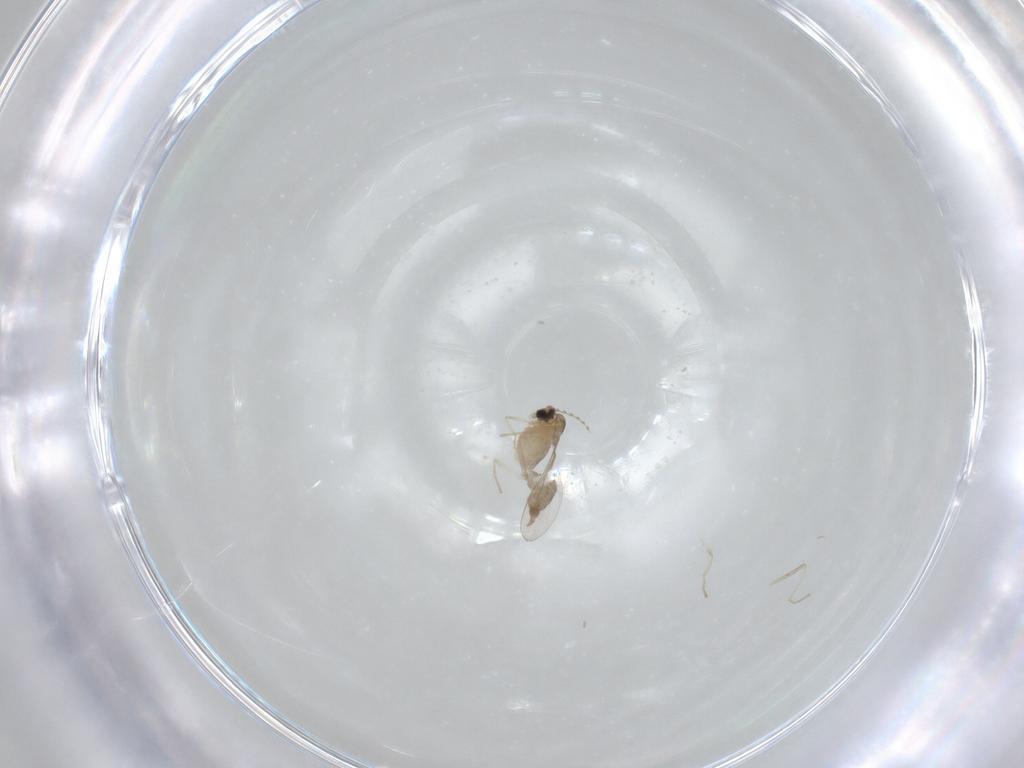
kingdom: Animalia
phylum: Arthropoda
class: Insecta
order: Diptera
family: Cecidomyiidae
